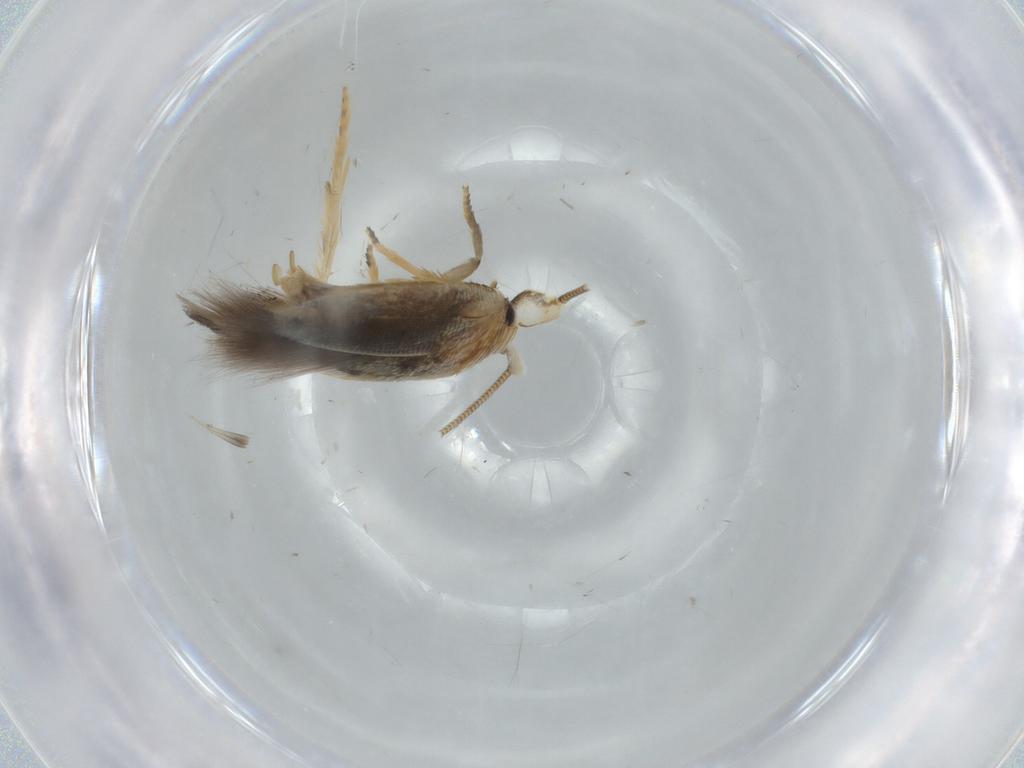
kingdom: Animalia
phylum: Arthropoda
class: Insecta
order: Lepidoptera
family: Opostegidae
